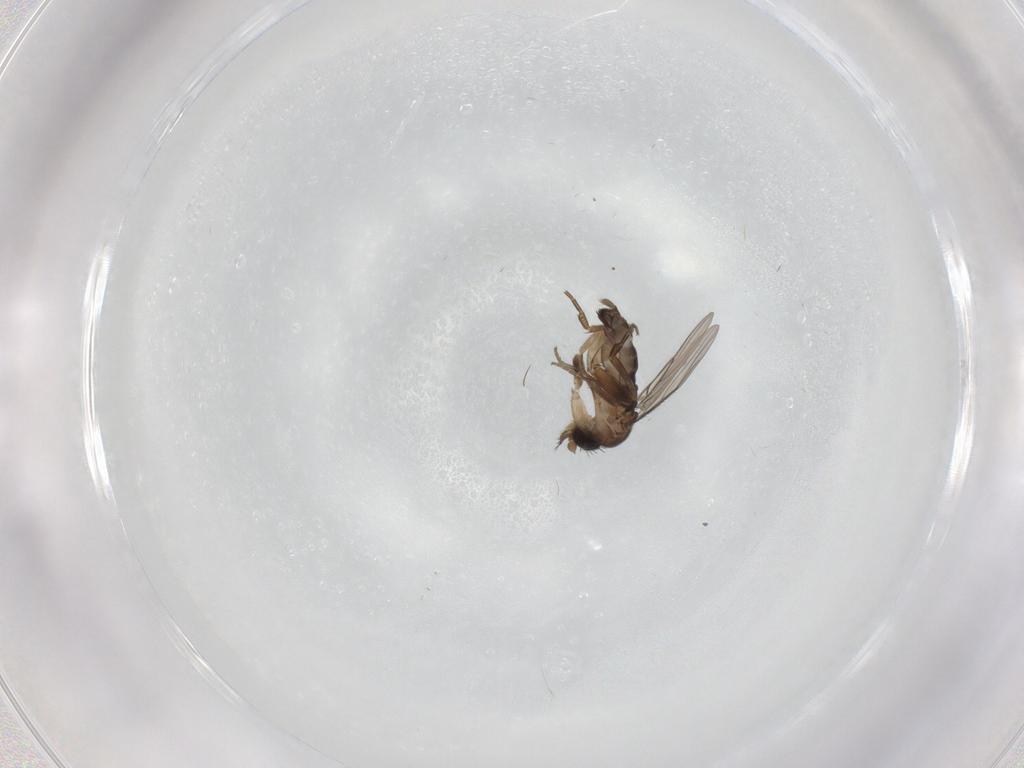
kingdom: Animalia
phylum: Arthropoda
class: Insecta
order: Diptera
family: Phoridae
